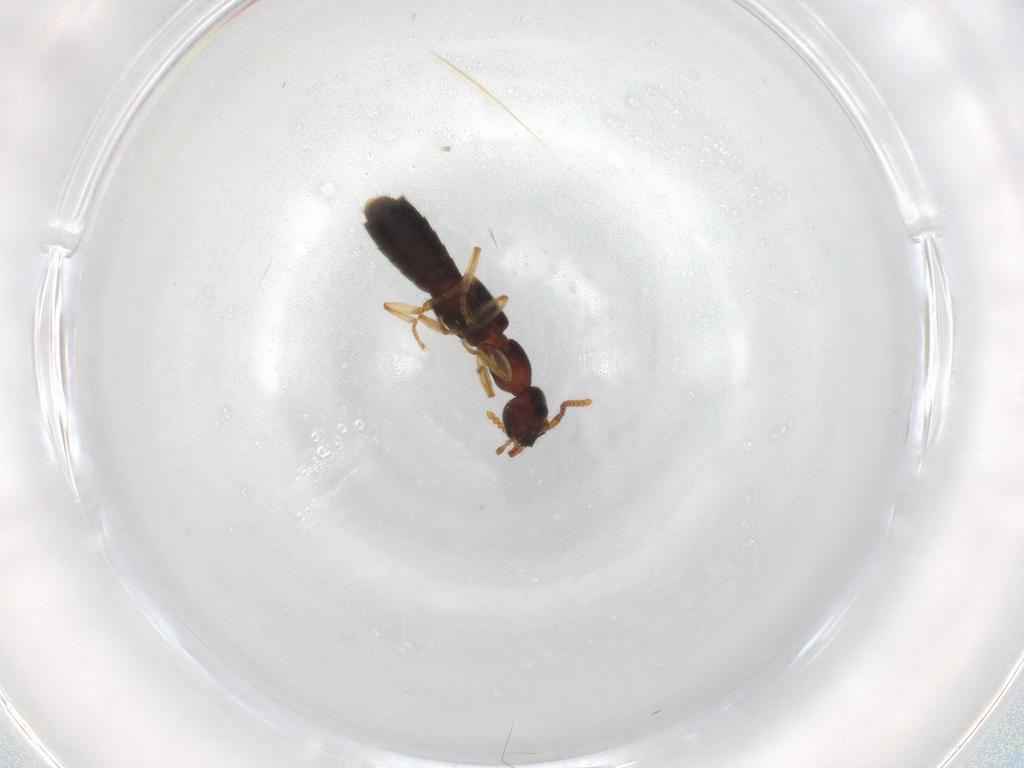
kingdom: Animalia
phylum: Arthropoda
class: Insecta
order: Coleoptera
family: Staphylinidae
